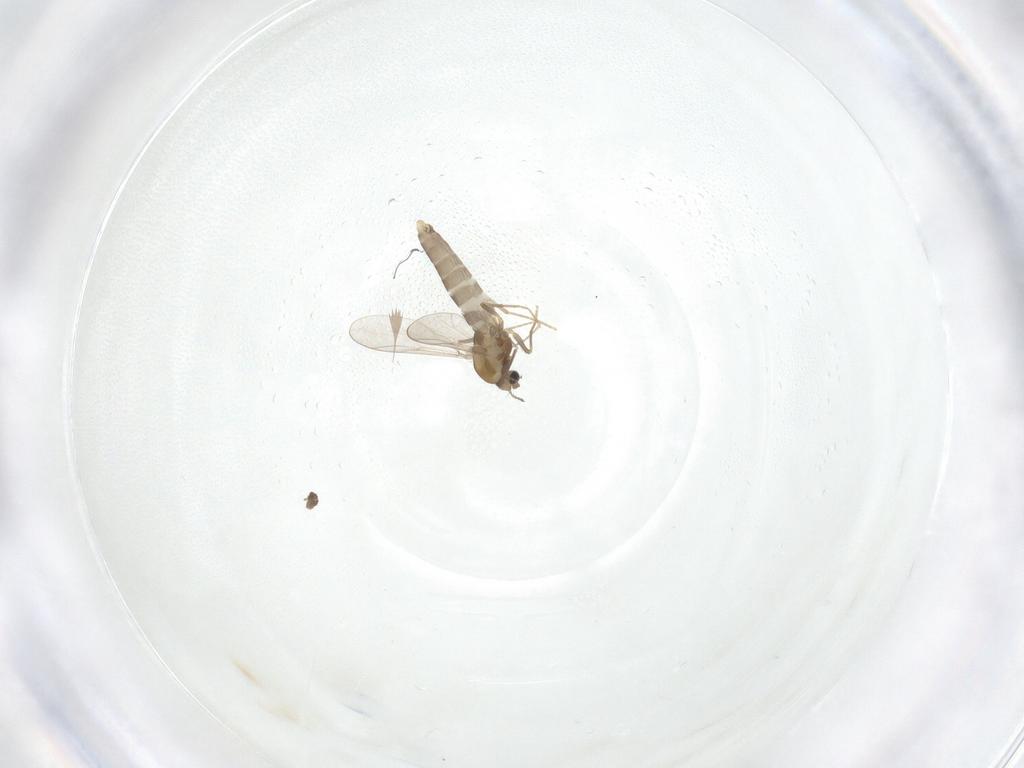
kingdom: Animalia
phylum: Arthropoda
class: Insecta
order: Diptera
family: Chironomidae
